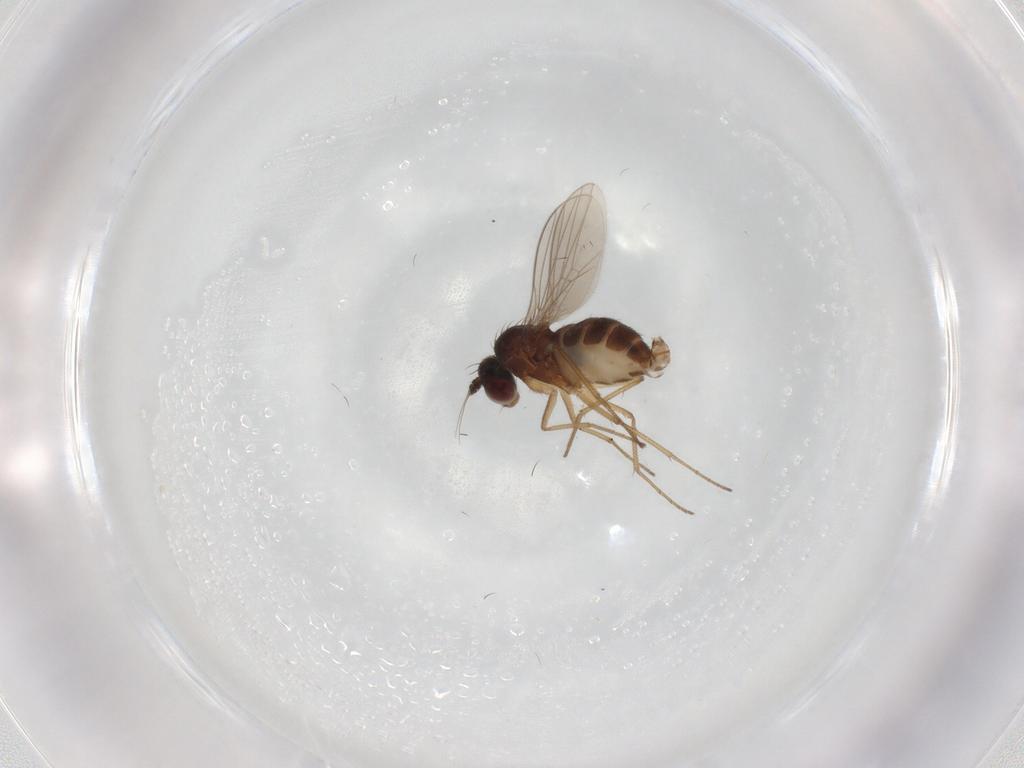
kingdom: Animalia
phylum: Arthropoda
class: Insecta
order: Diptera
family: Dolichopodidae
